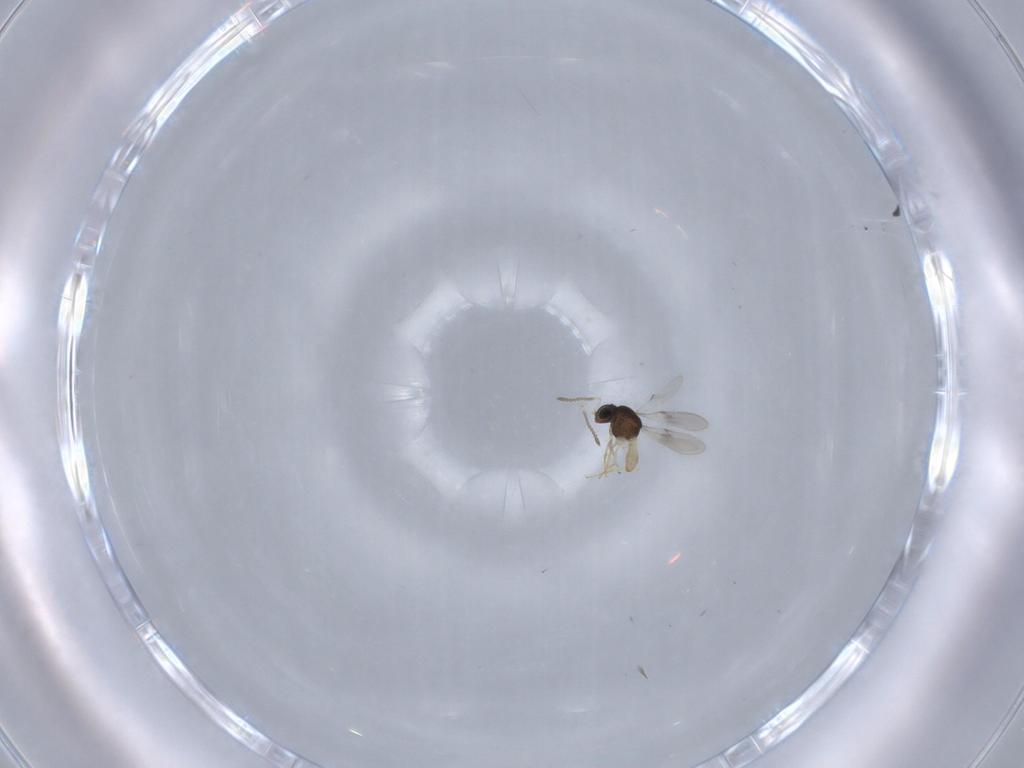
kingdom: Animalia
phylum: Arthropoda
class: Insecta
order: Hymenoptera
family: Scelionidae
